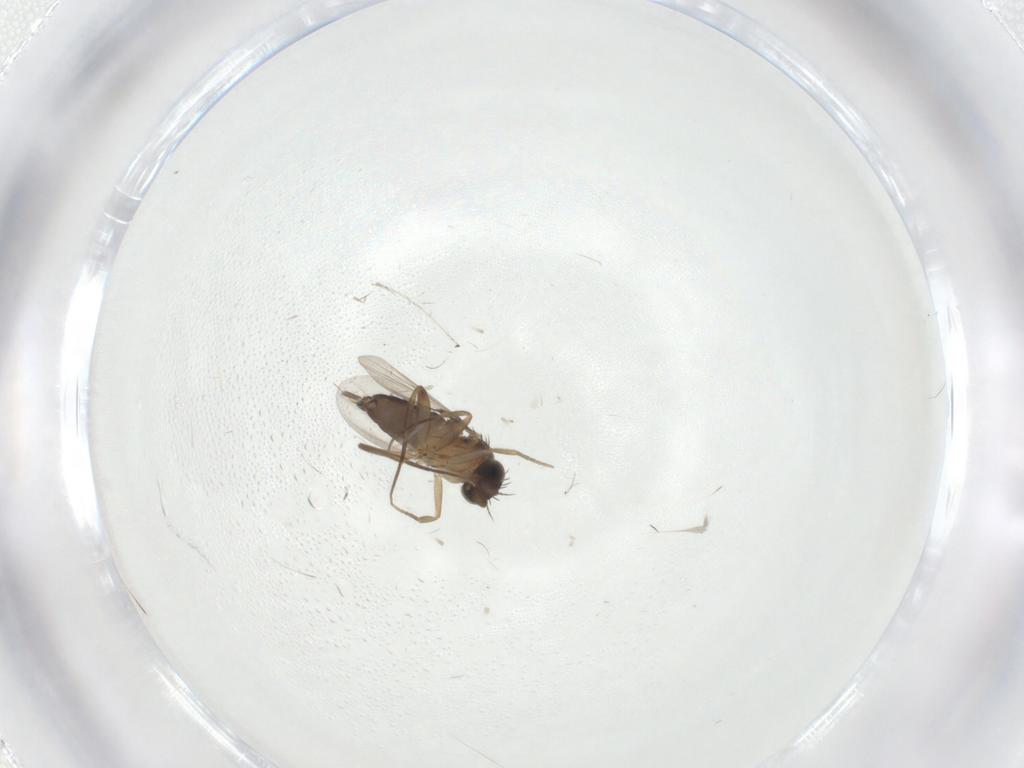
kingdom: Animalia
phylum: Arthropoda
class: Insecta
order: Diptera
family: Phoridae
